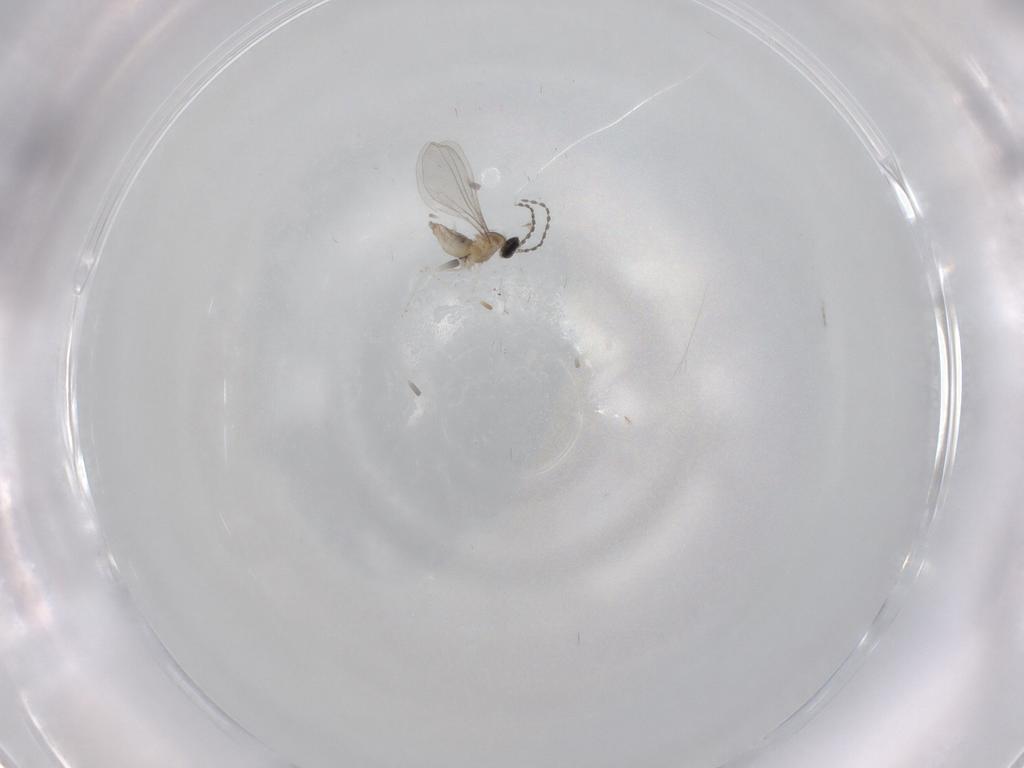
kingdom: Animalia
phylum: Arthropoda
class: Insecta
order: Diptera
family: Cecidomyiidae
